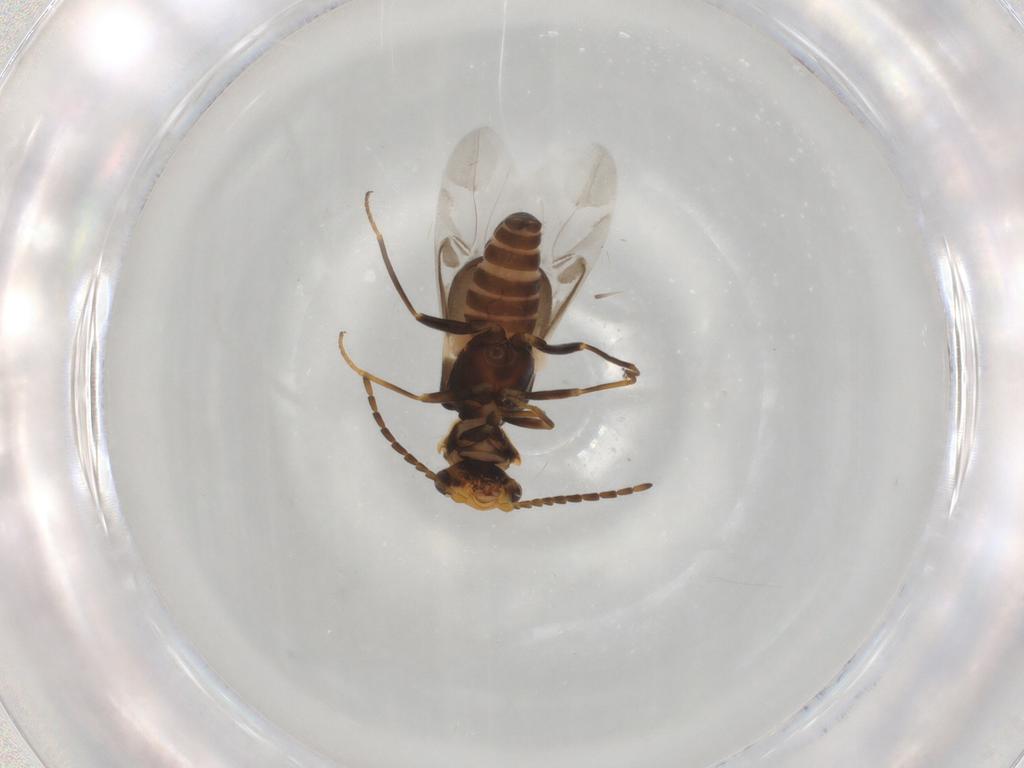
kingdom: Animalia
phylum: Arthropoda
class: Insecta
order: Coleoptera
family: Melyridae
